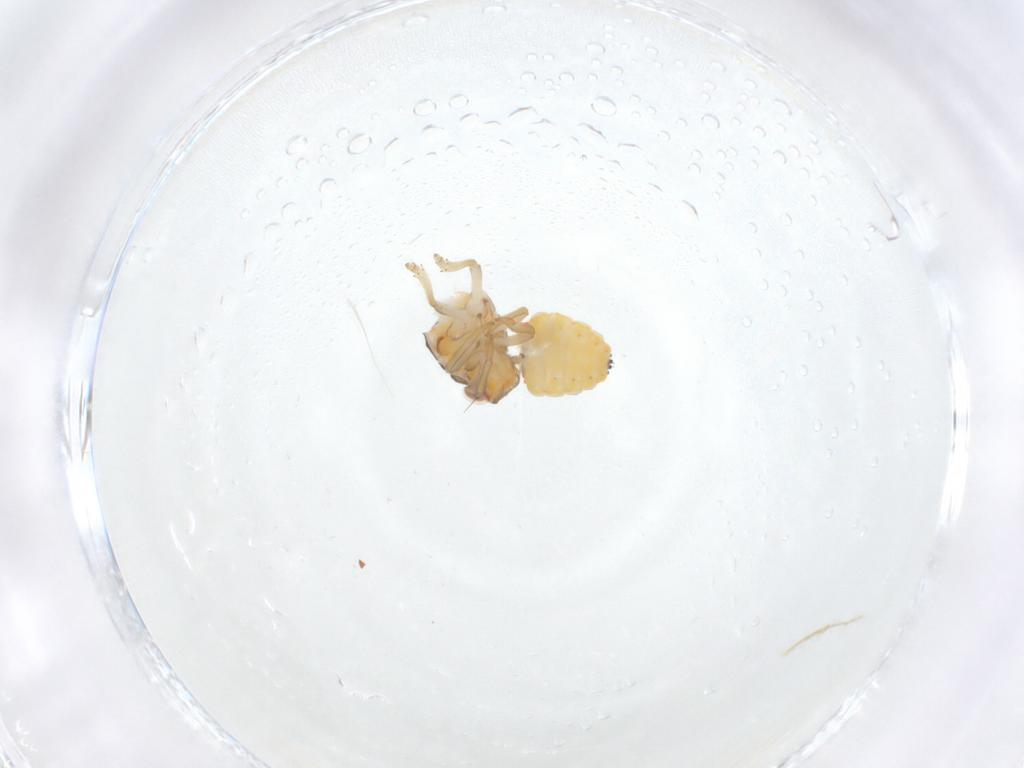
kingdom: Animalia
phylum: Arthropoda
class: Insecta
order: Hemiptera
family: Issidae
